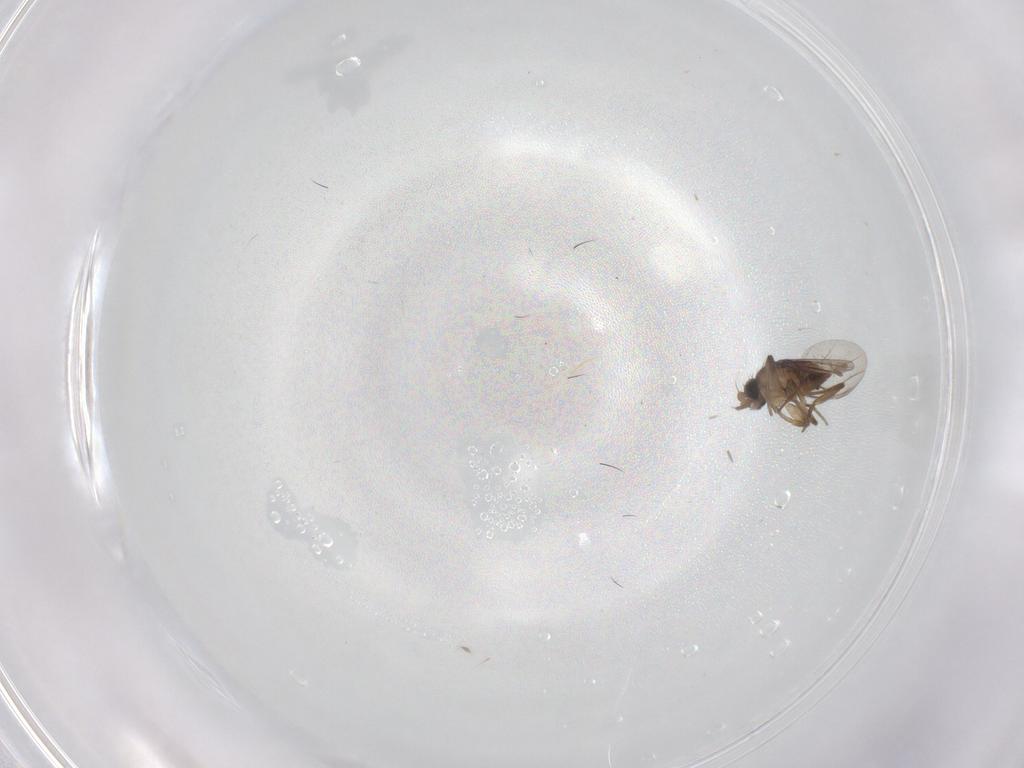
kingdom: Animalia
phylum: Arthropoda
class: Insecta
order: Diptera
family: Phoridae
